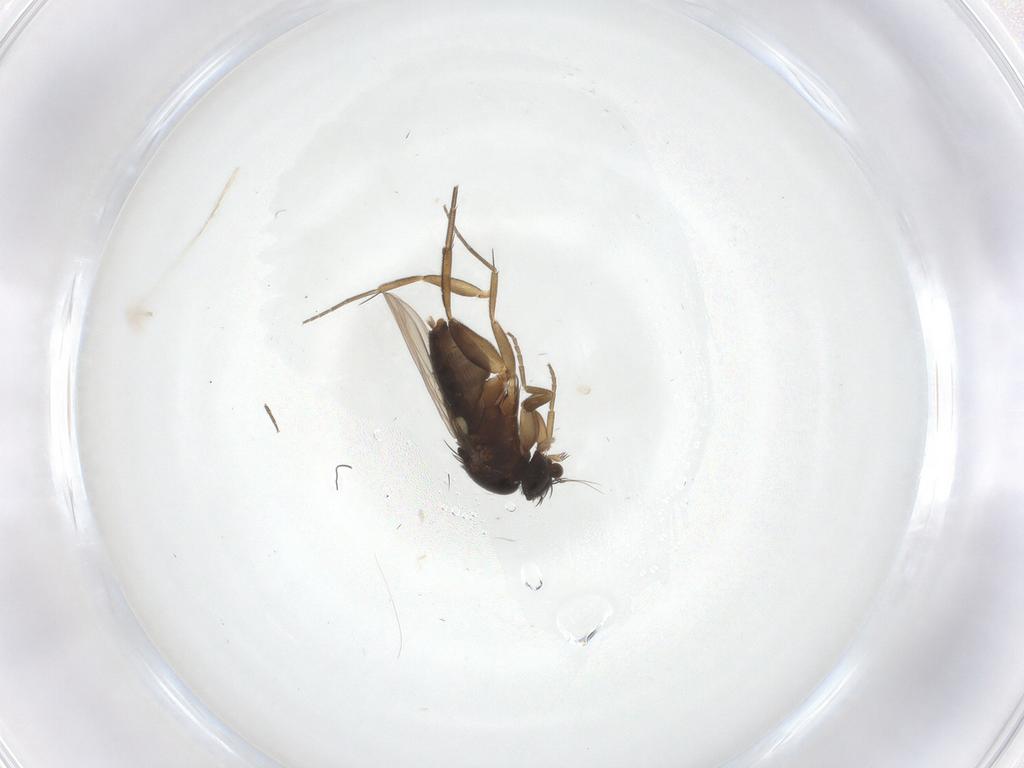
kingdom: Animalia
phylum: Arthropoda
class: Insecta
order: Diptera
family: Phoridae
